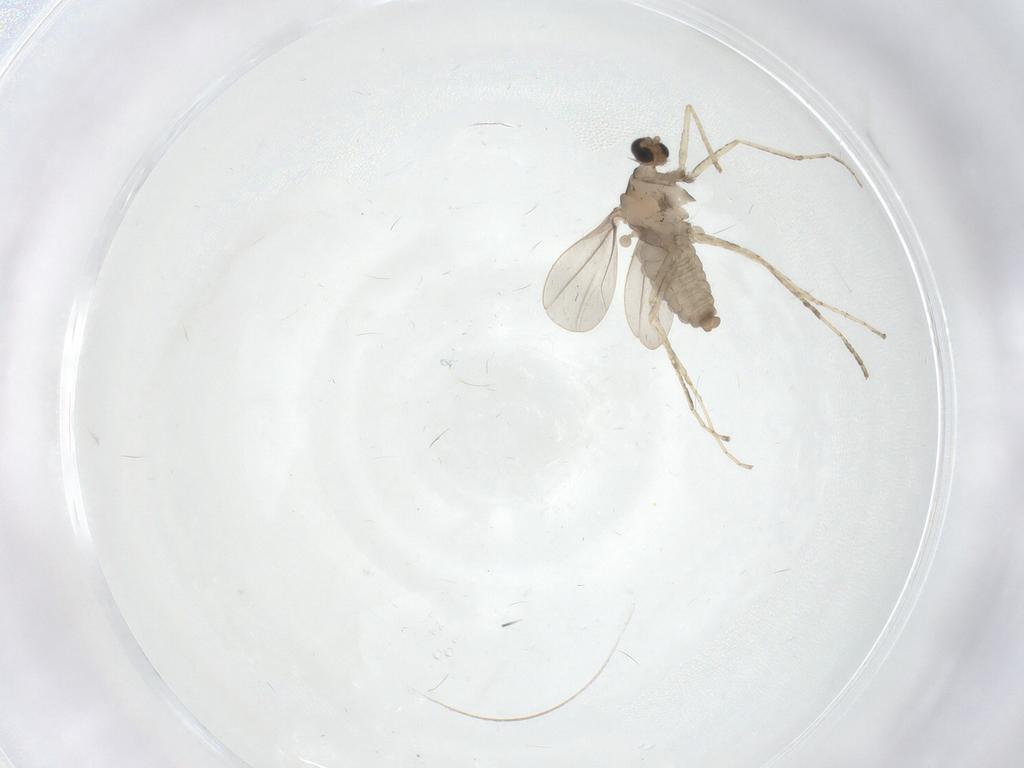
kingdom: Animalia
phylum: Arthropoda
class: Insecta
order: Diptera
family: Cecidomyiidae
